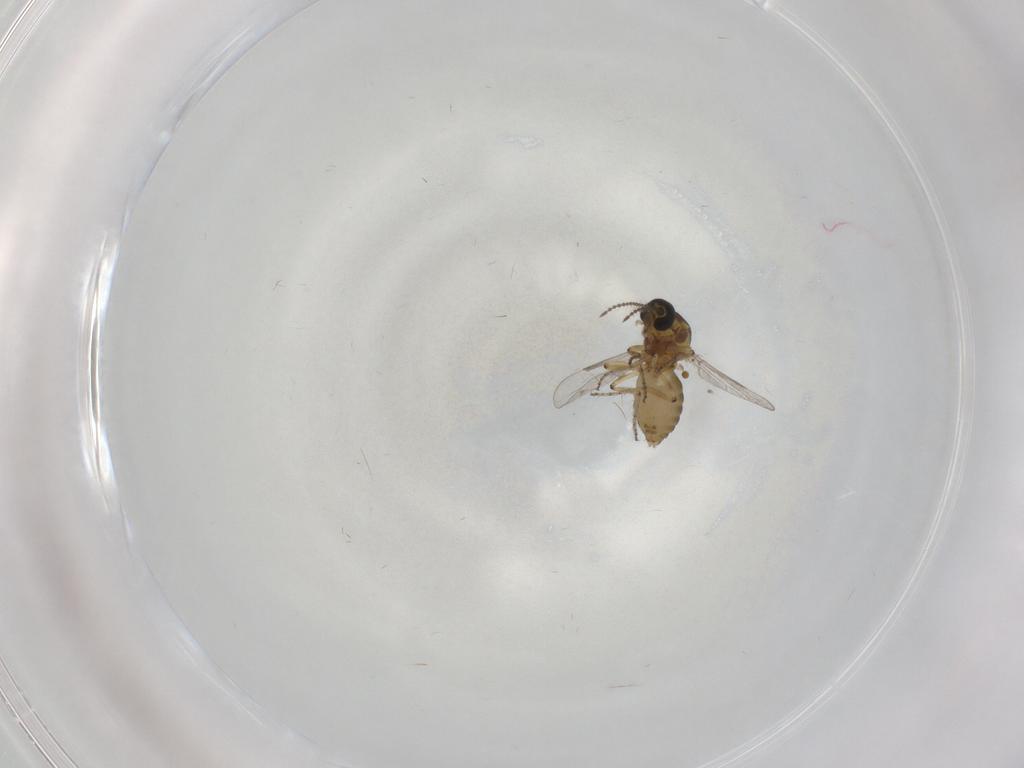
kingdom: Animalia
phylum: Arthropoda
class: Insecta
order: Diptera
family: Ceratopogonidae
